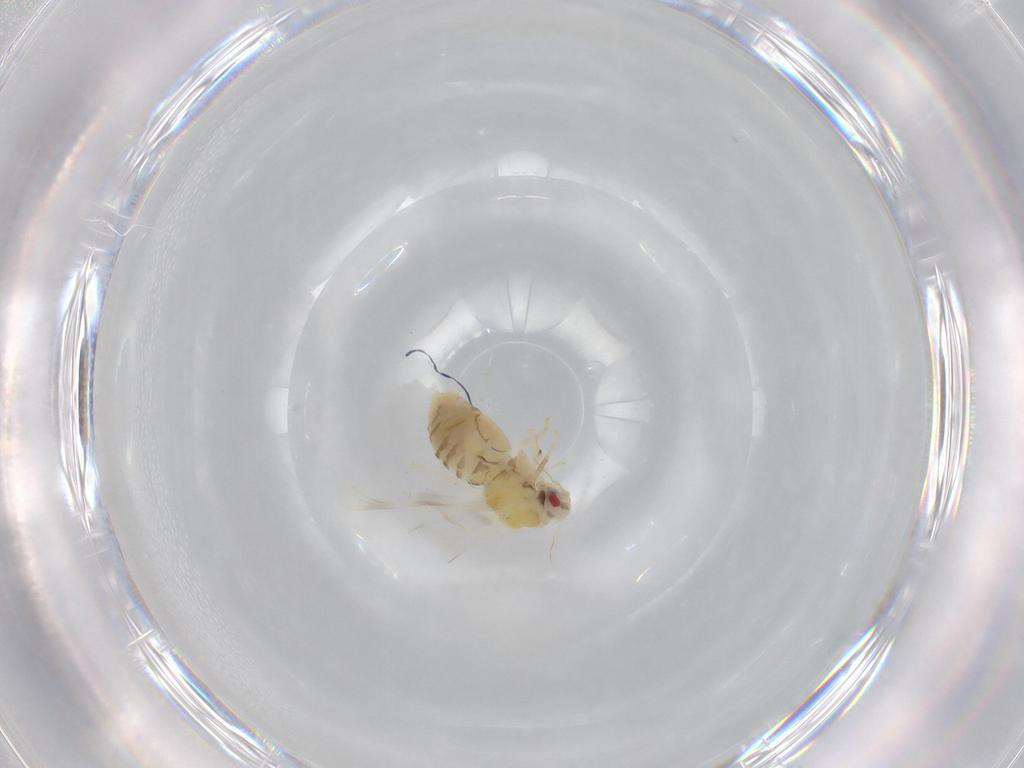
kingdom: Animalia
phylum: Arthropoda
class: Insecta
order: Hemiptera
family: Aleyrodidae
